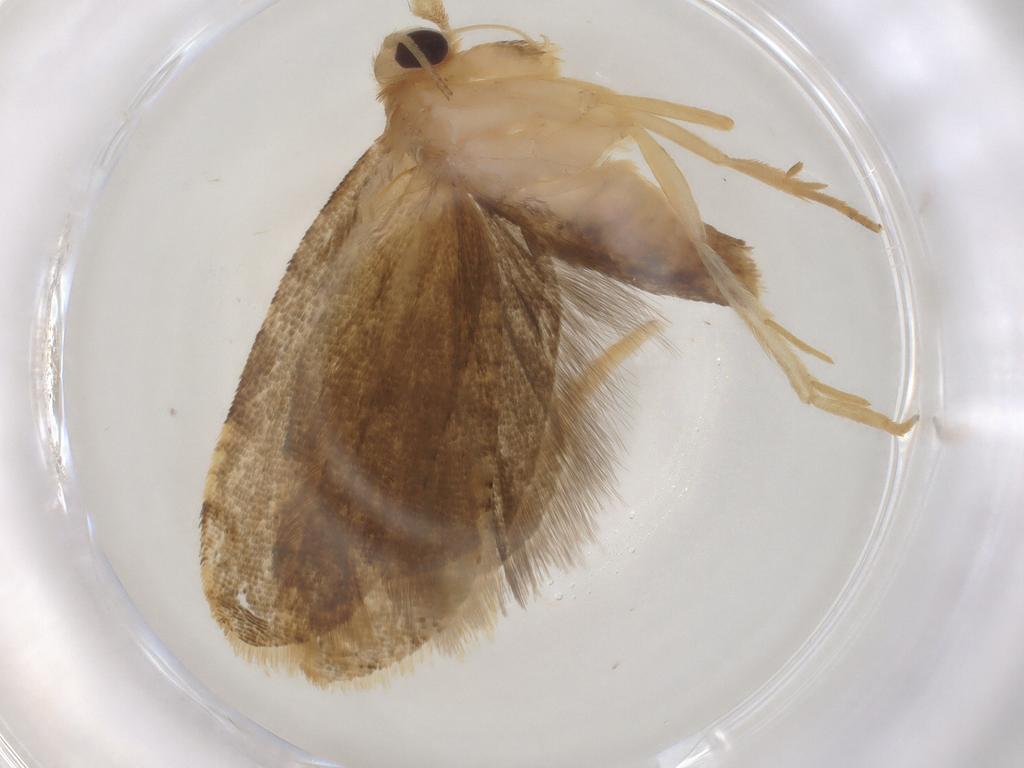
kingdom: Animalia
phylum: Arthropoda
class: Insecta
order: Lepidoptera
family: Tortricidae
